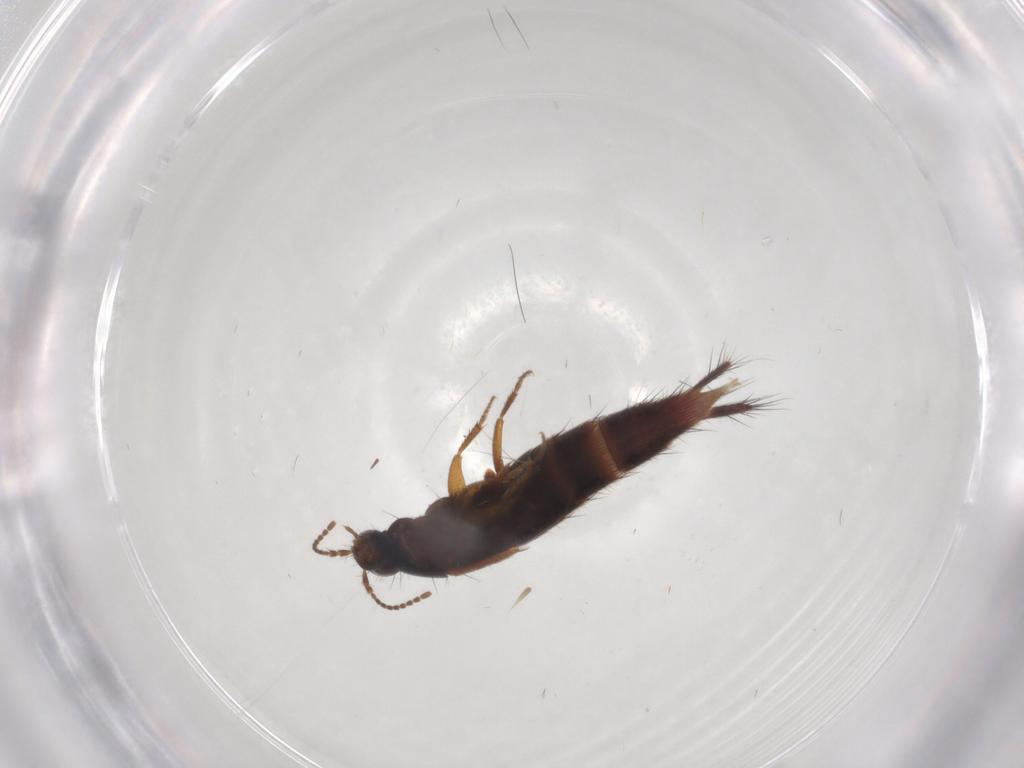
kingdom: Animalia
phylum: Arthropoda
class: Insecta
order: Coleoptera
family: Staphylinidae
